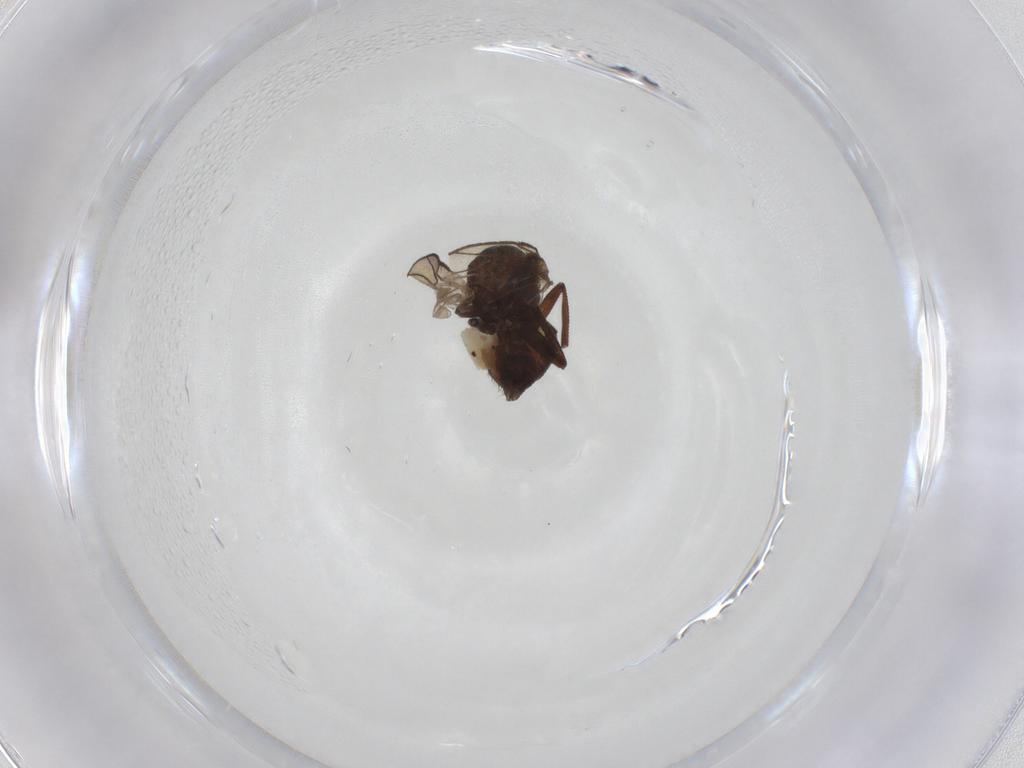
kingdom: Animalia
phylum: Arthropoda
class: Insecta
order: Diptera
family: Agromyzidae
